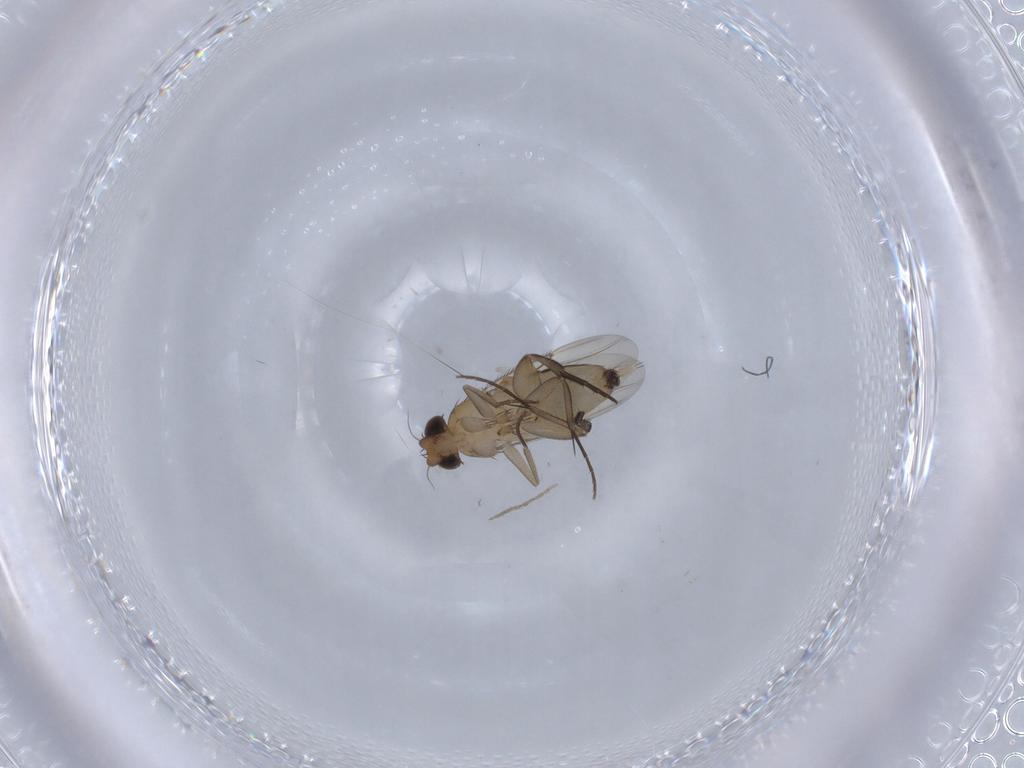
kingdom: Animalia
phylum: Arthropoda
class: Insecta
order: Diptera
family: Phoridae
